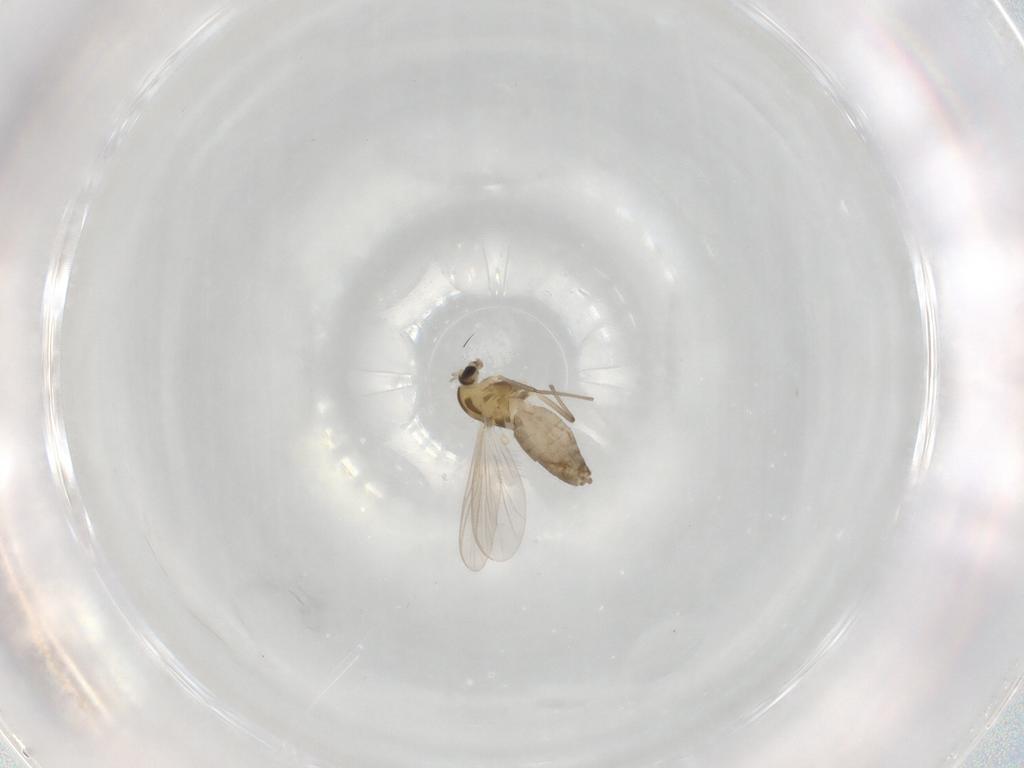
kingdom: Animalia
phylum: Arthropoda
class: Insecta
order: Diptera
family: Chironomidae
